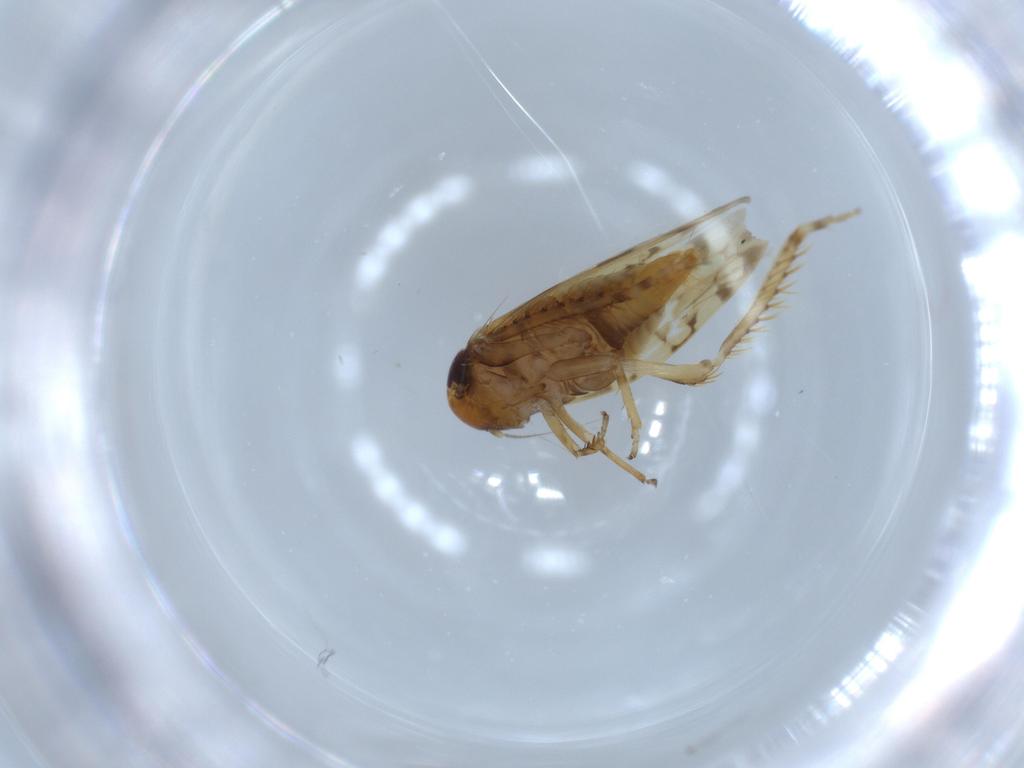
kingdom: Animalia
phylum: Arthropoda
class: Insecta
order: Hemiptera
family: Cicadellidae
